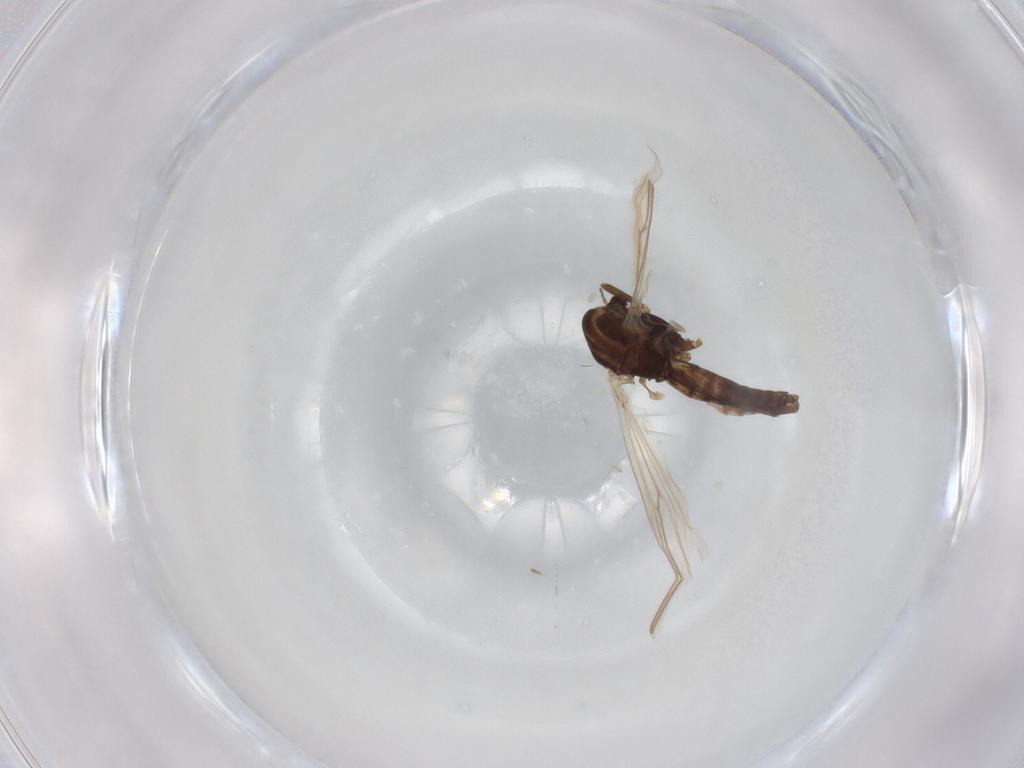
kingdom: Animalia
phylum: Arthropoda
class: Insecta
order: Diptera
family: Chironomidae
